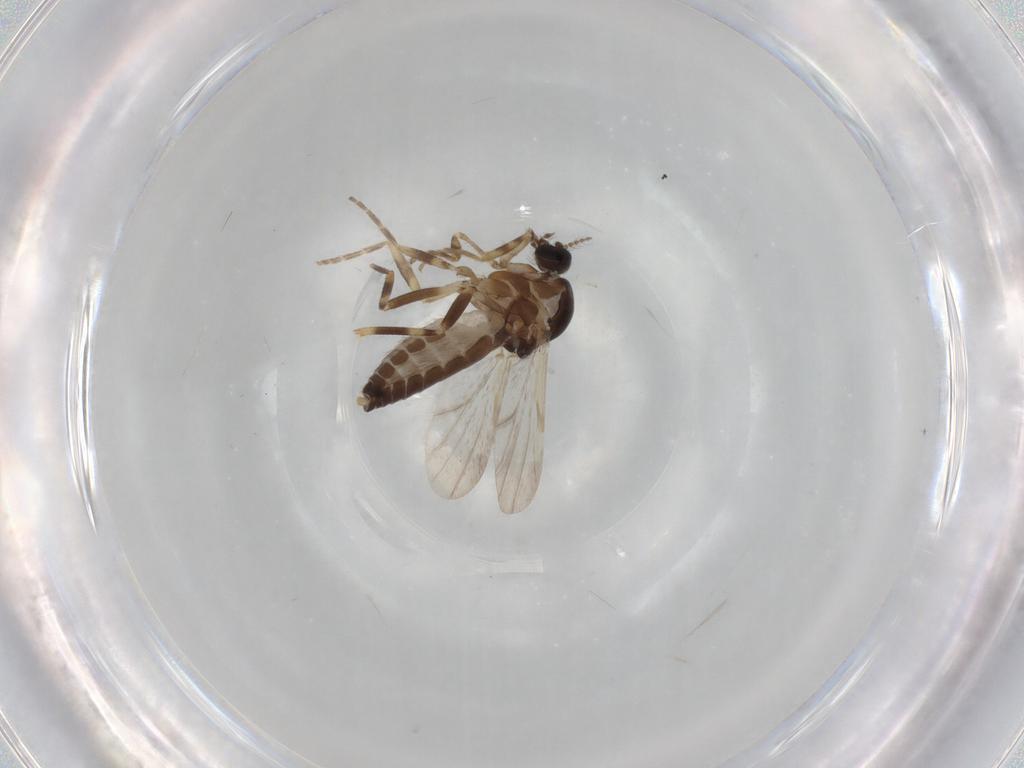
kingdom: Animalia
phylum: Arthropoda
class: Insecta
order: Diptera
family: Ceratopogonidae
